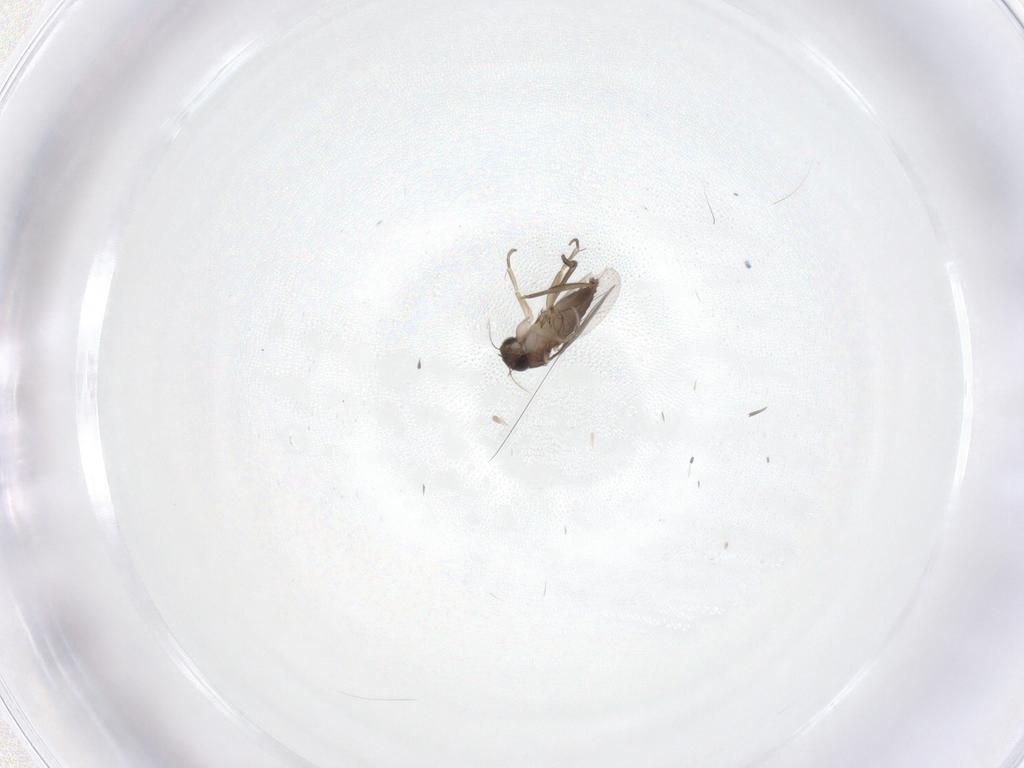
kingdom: Animalia
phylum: Arthropoda
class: Insecta
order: Diptera
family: Phoridae
